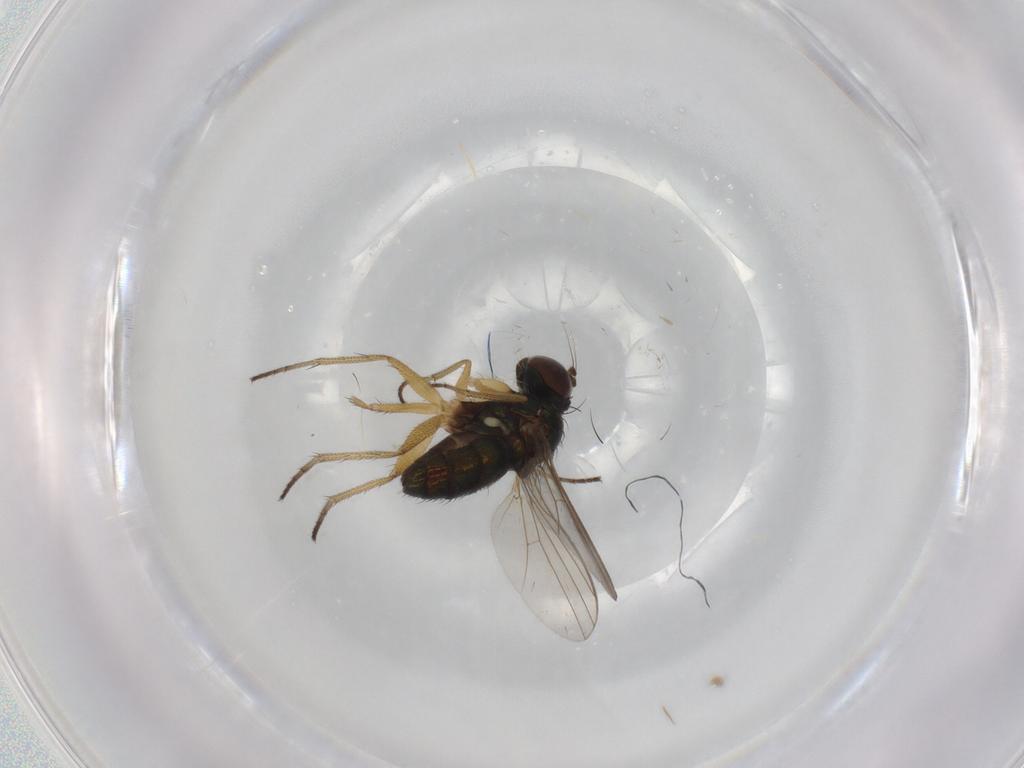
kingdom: Animalia
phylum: Arthropoda
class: Insecta
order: Diptera
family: Limoniidae
